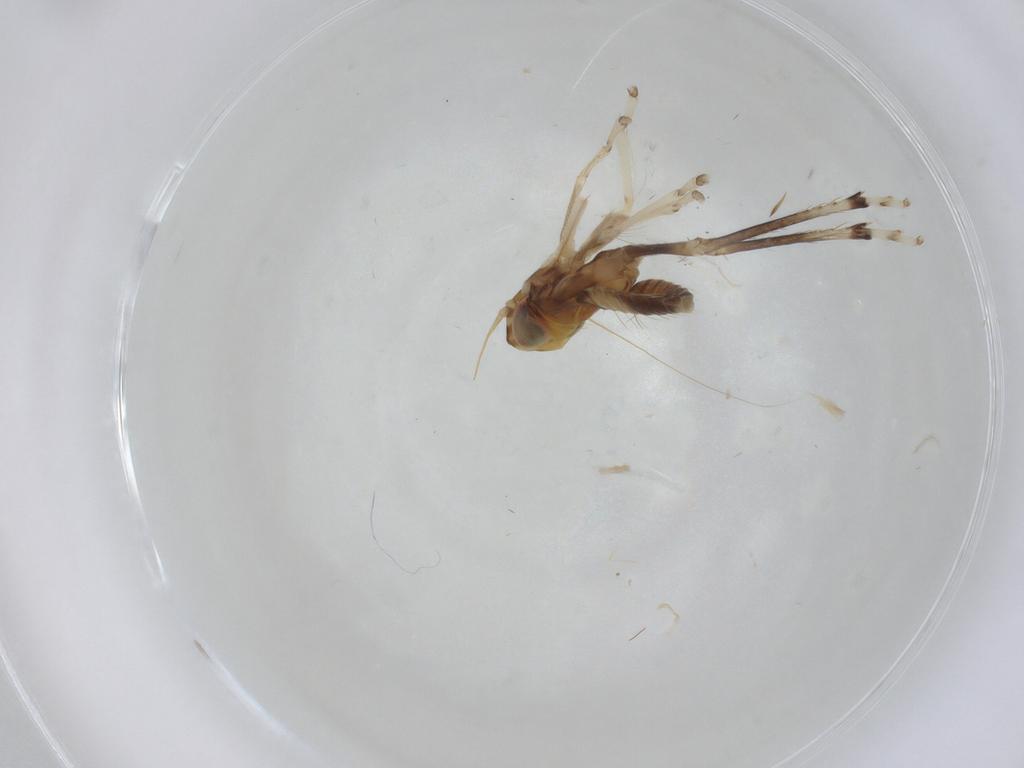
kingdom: Animalia
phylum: Arthropoda
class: Insecta
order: Hemiptera
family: Cicadellidae
